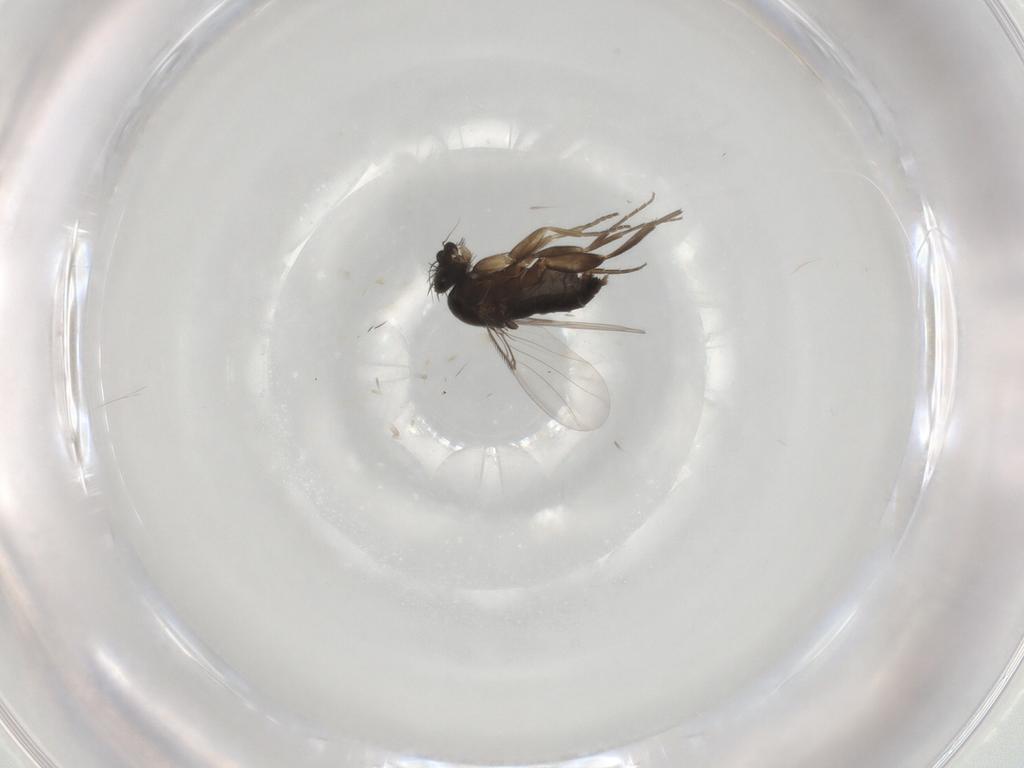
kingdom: Animalia
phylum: Arthropoda
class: Insecta
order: Diptera
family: Phoridae
